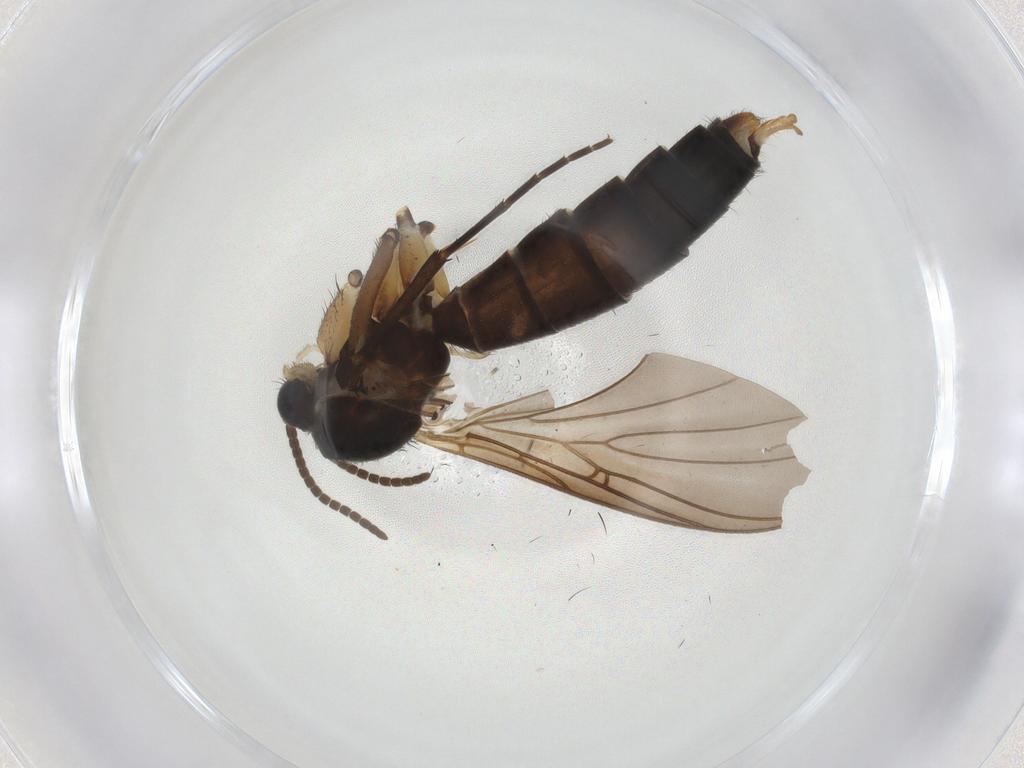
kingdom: Animalia
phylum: Arthropoda
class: Insecta
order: Diptera
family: Mycetophilidae
